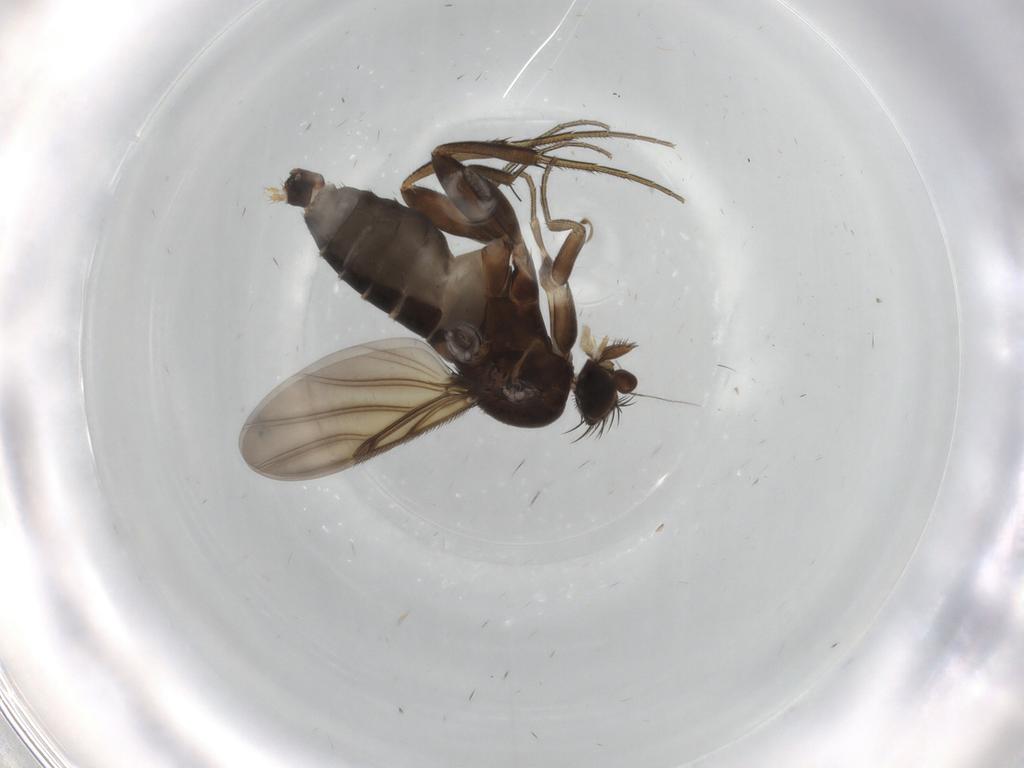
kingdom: Animalia
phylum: Arthropoda
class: Insecta
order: Diptera
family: Phoridae
